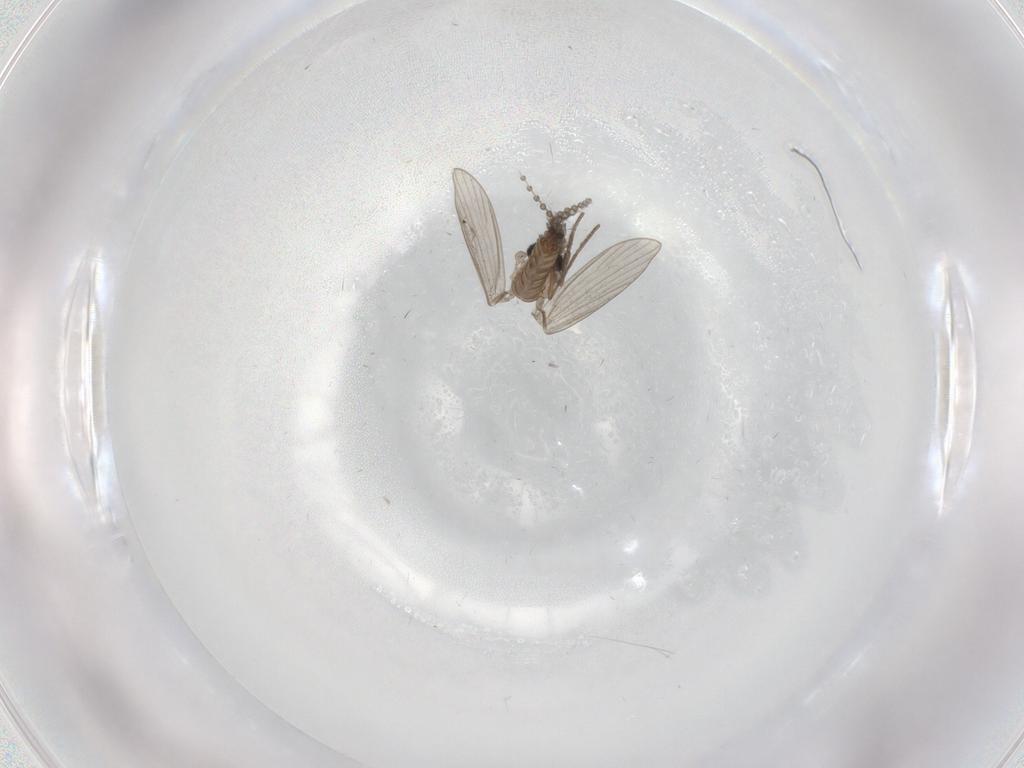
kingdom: Animalia
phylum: Arthropoda
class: Insecta
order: Diptera
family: Psychodidae
